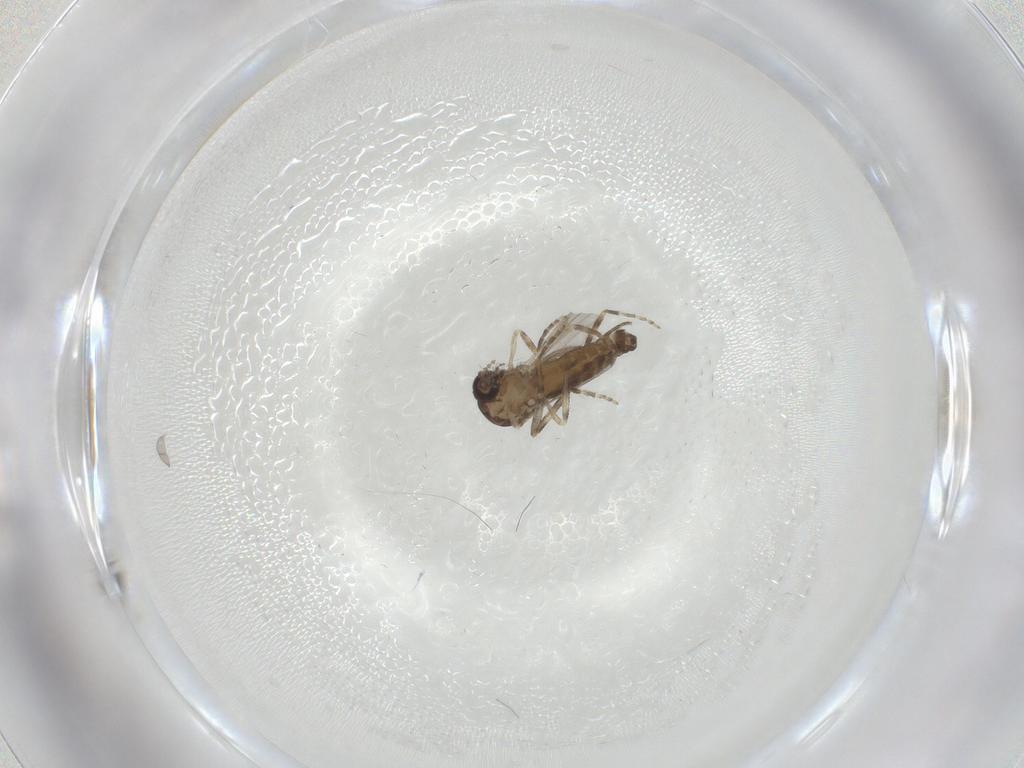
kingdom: Animalia
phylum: Arthropoda
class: Insecta
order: Diptera
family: Ceratopogonidae
